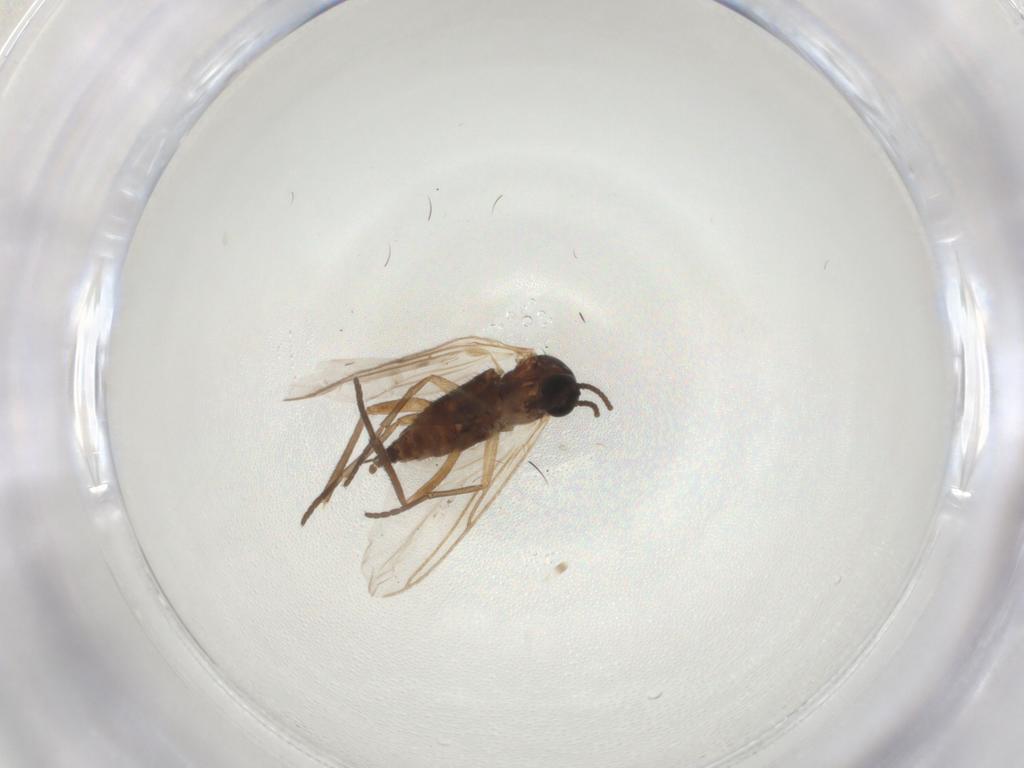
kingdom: Animalia
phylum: Arthropoda
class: Insecta
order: Diptera
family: Sciaridae
